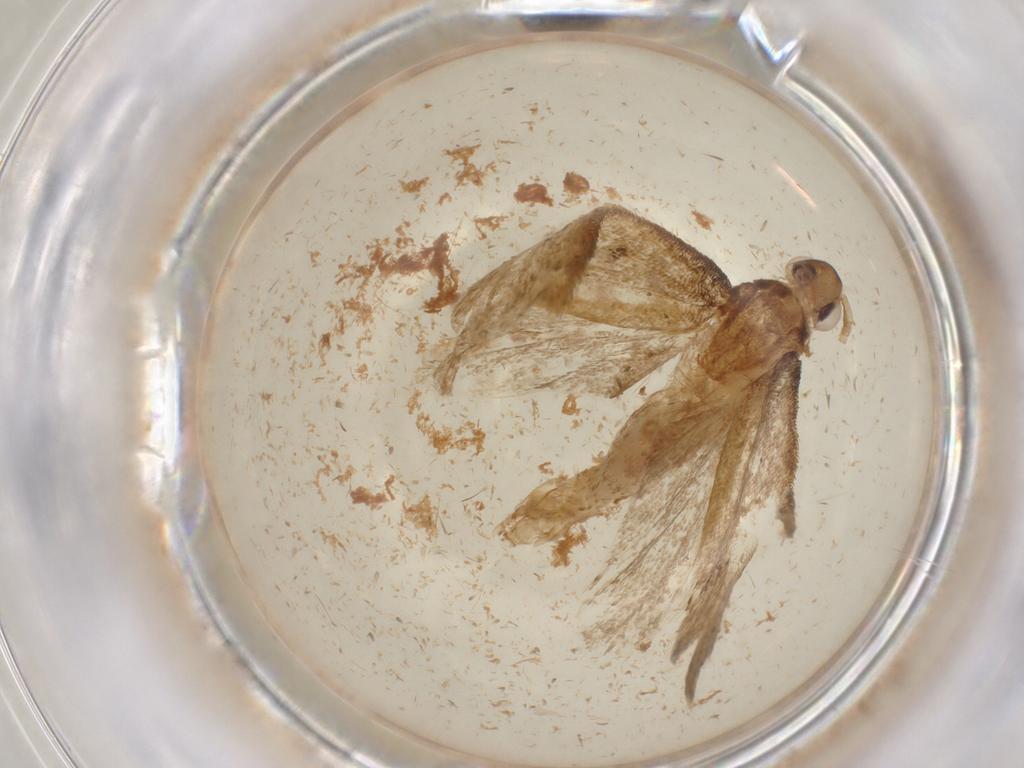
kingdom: Animalia
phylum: Arthropoda
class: Insecta
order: Lepidoptera
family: Lecithoceridae
